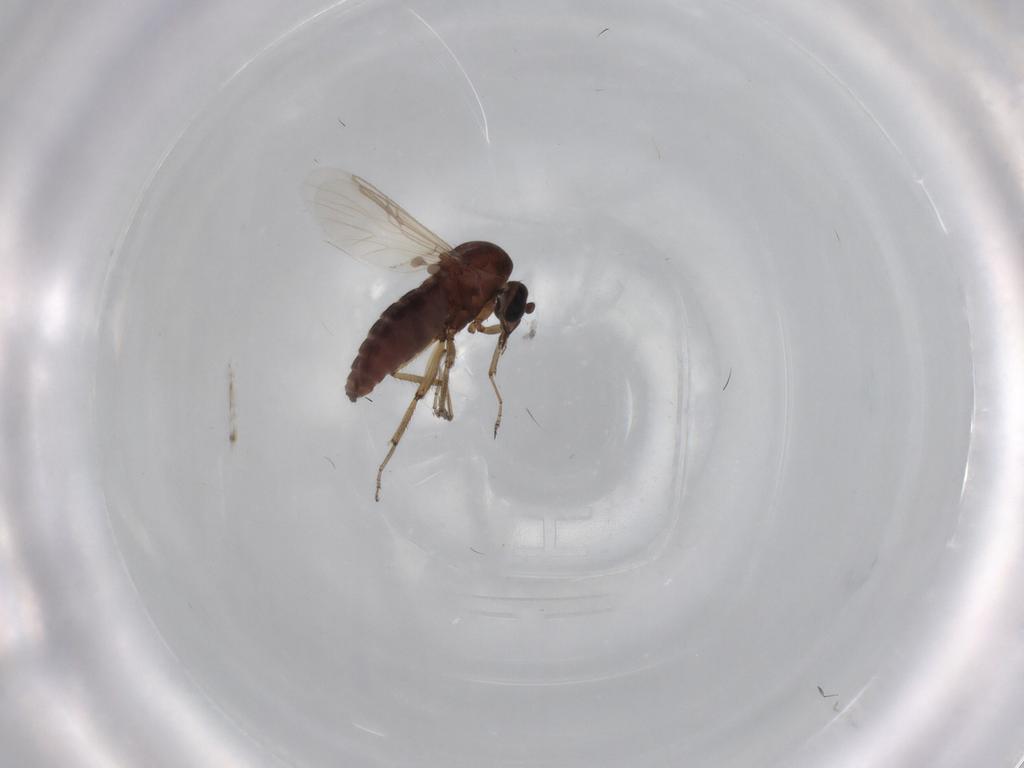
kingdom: Animalia
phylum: Arthropoda
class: Insecta
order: Diptera
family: Ceratopogonidae
